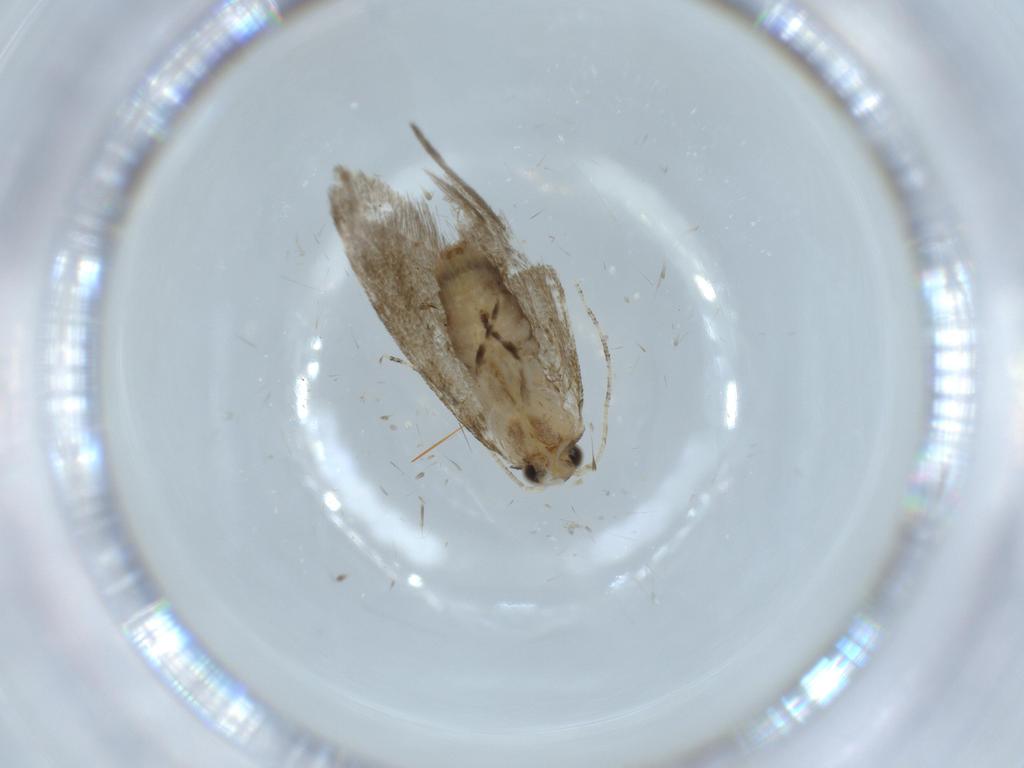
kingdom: Animalia
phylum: Arthropoda
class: Insecta
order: Lepidoptera
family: Tineidae
